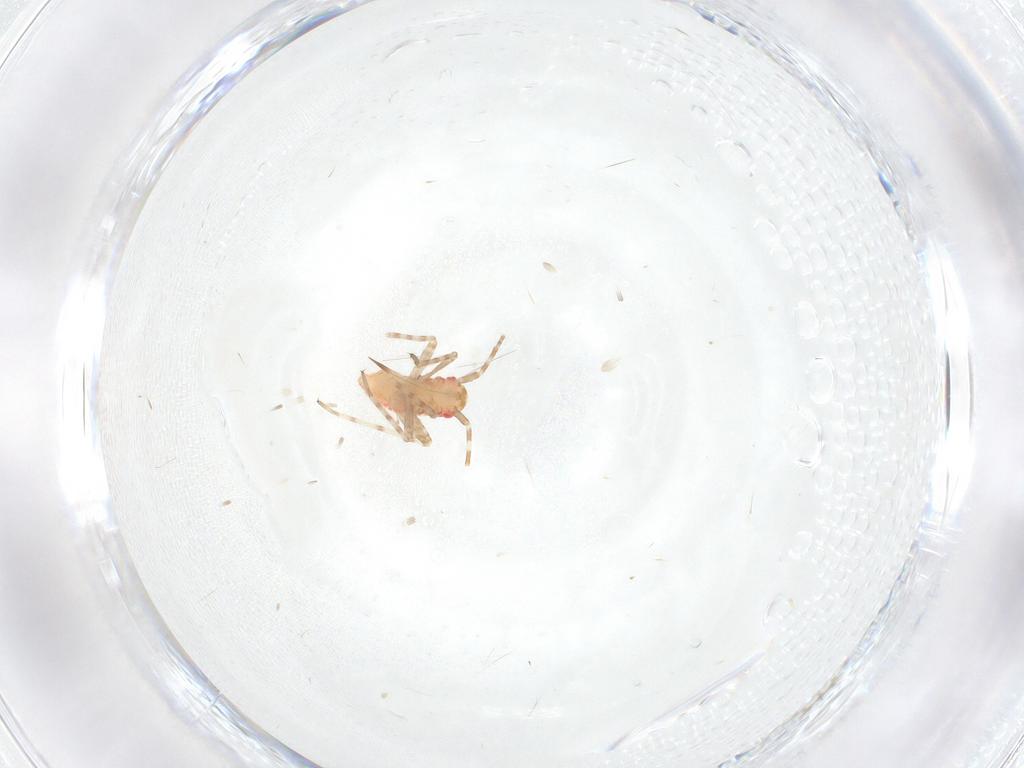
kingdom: Animalia
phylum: Arthropoda
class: Insecta
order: Hemiptera
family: Miridae
